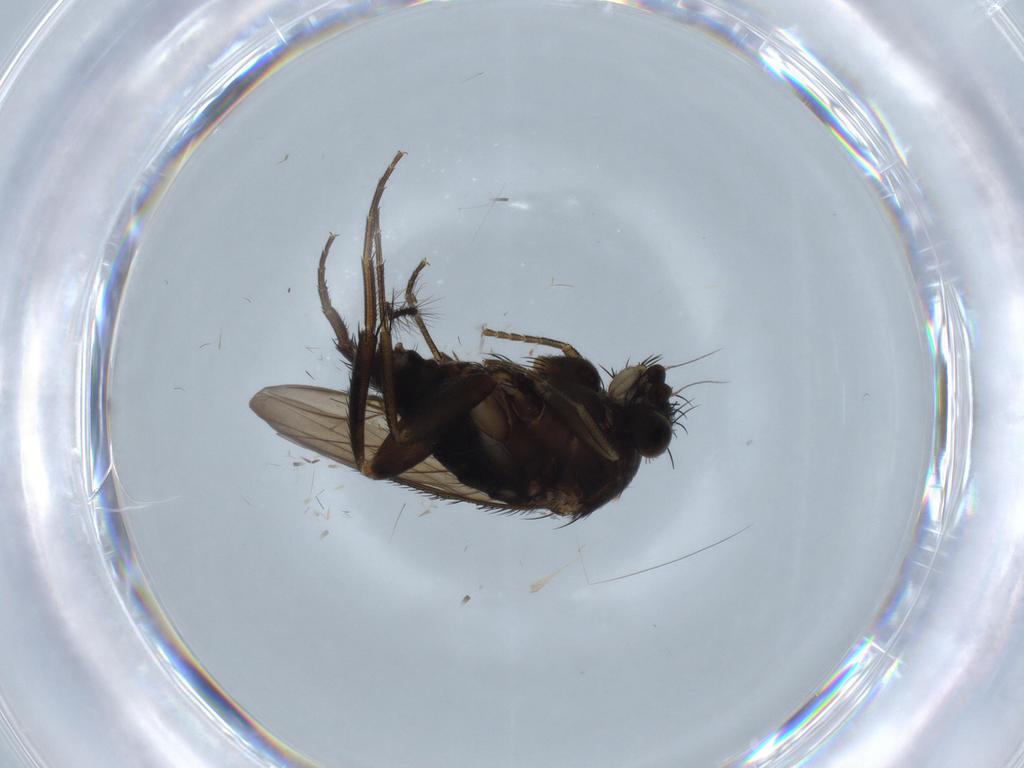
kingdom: Animalia
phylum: Arthropoda
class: Insecta
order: Diptera
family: Phoridae
